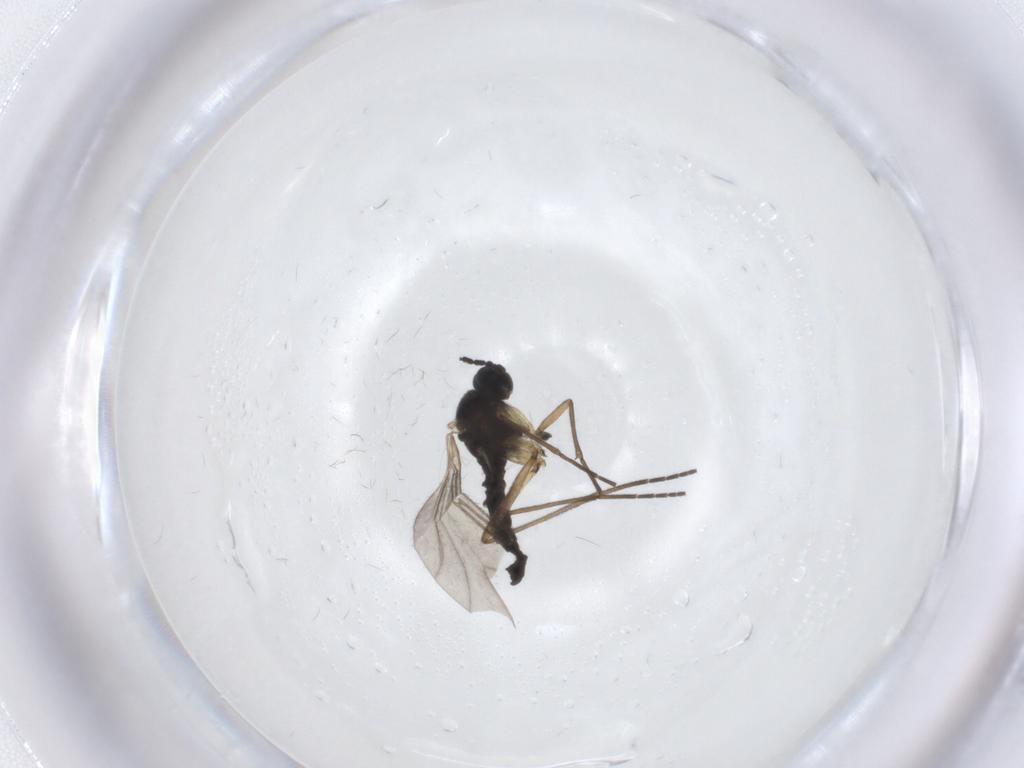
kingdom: Animalia
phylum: Arthropoda
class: Insecta
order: Diptera
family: Sciaridae
